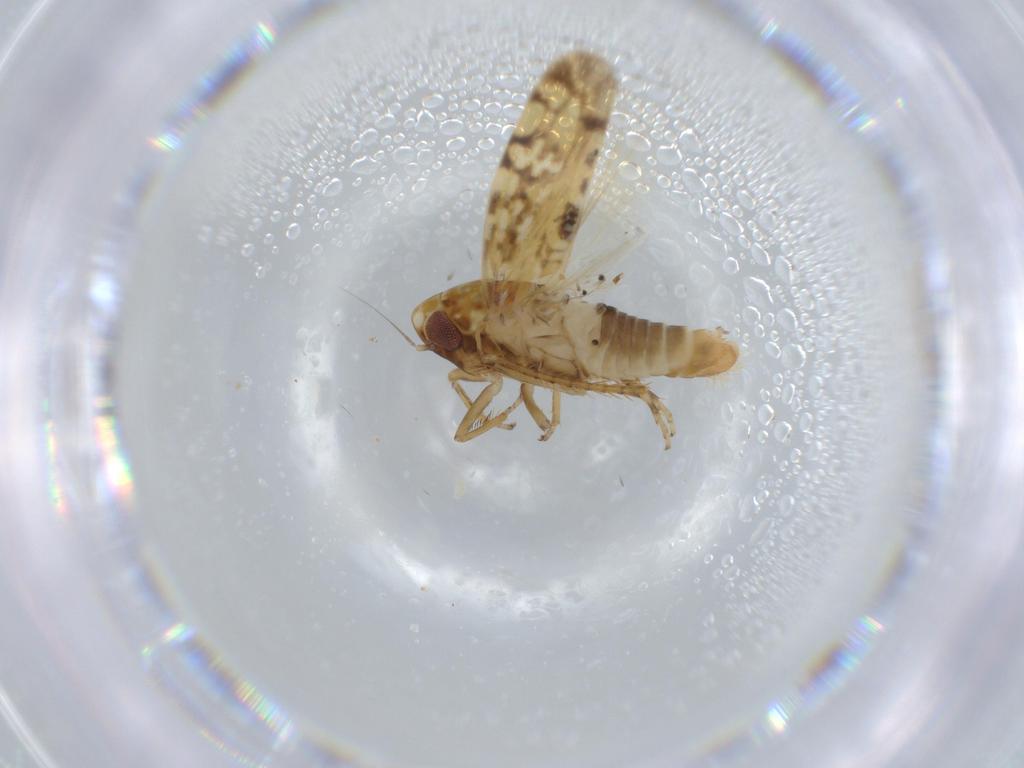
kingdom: Animalia
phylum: Arthropoda
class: Insecta
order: Hemiptera
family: Cicadellidae
